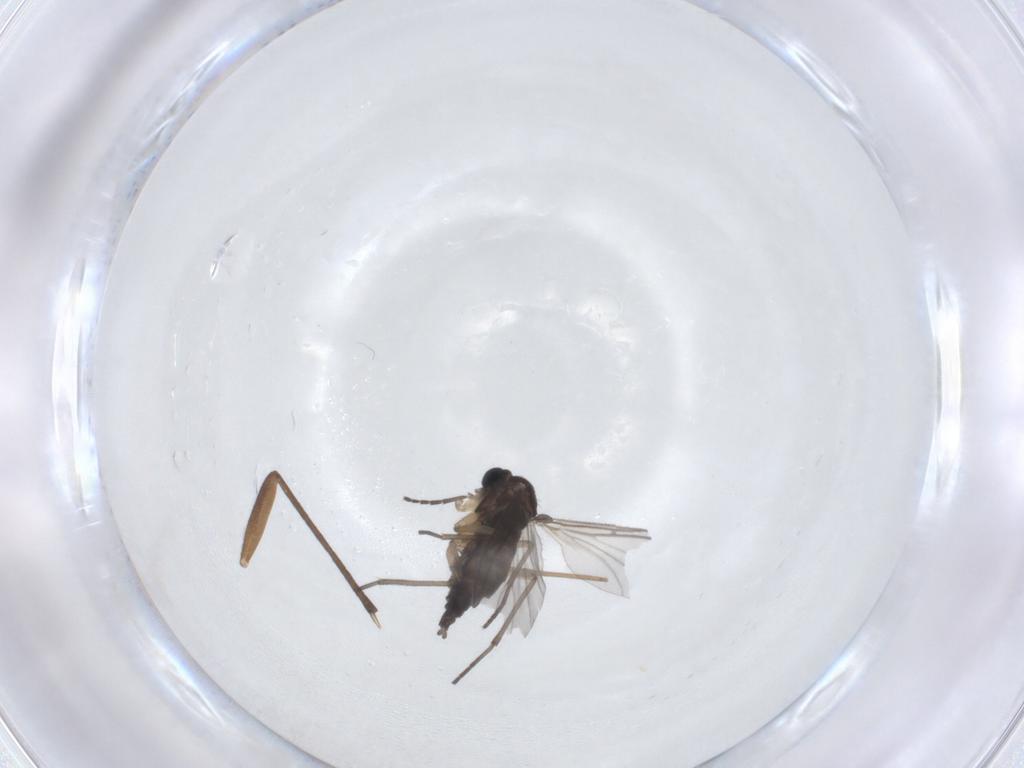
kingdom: Animalia
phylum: Arthropoda
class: Insecta
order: Diptera
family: Sciaridae
